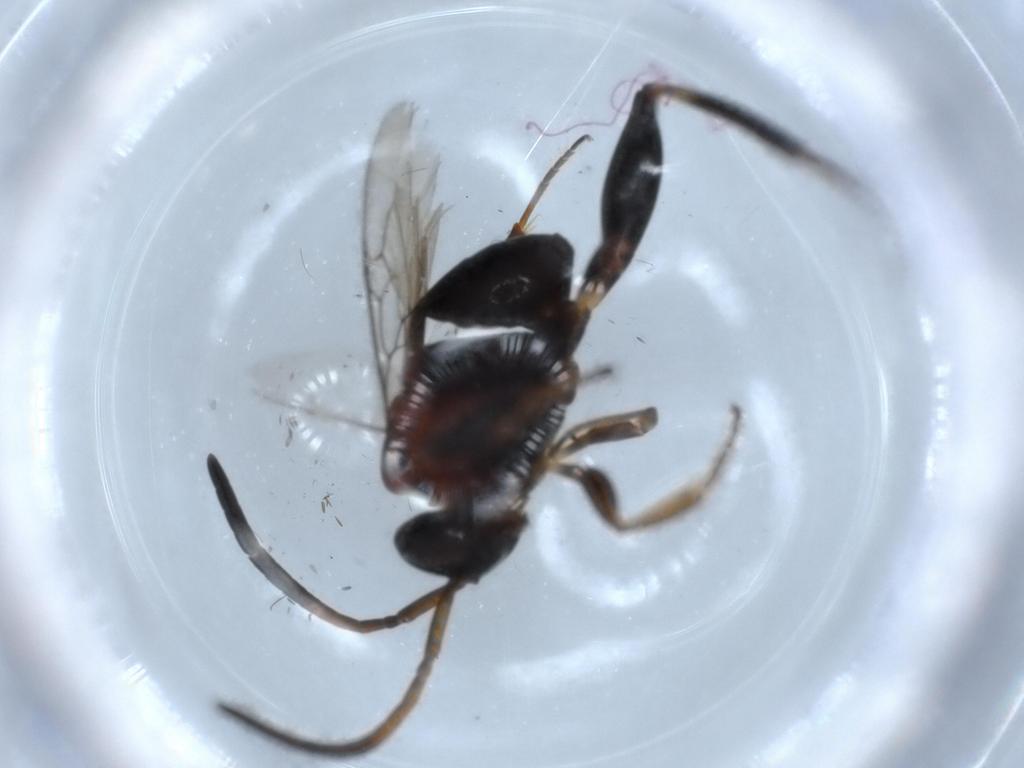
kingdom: Animalia
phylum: Arthropoda
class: Insecta
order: Hymenoptera
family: Evaniidae
